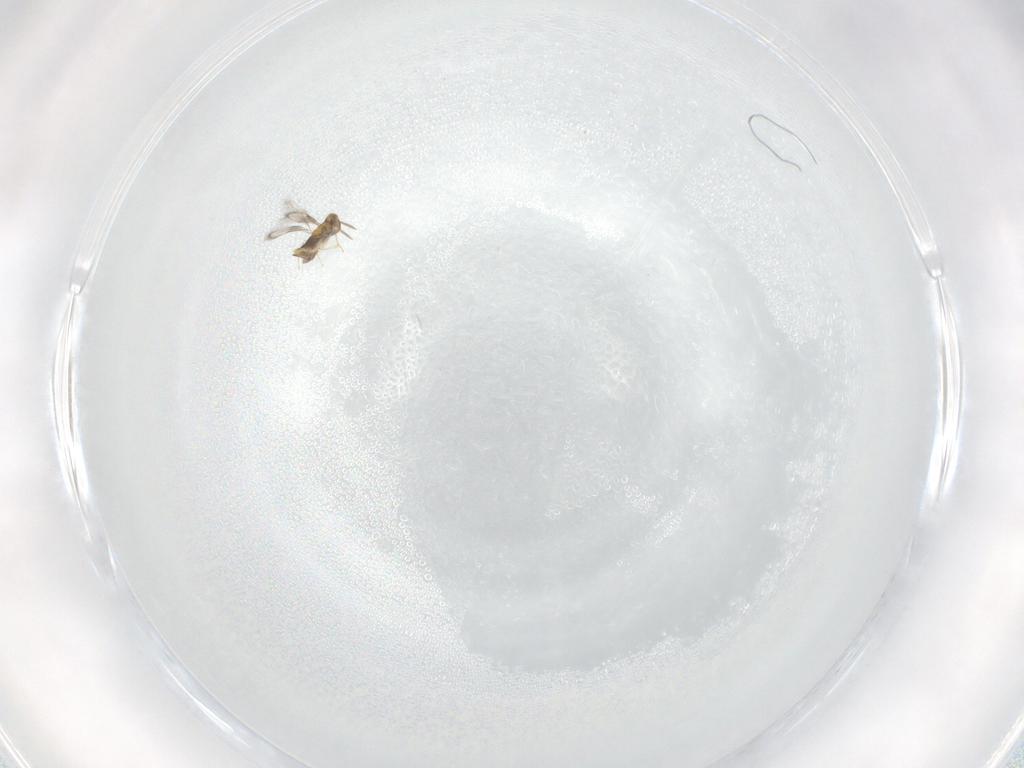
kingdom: Animalia
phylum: Arthropoda
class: Insecta
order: Hymenoptera
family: Aphelinidae
